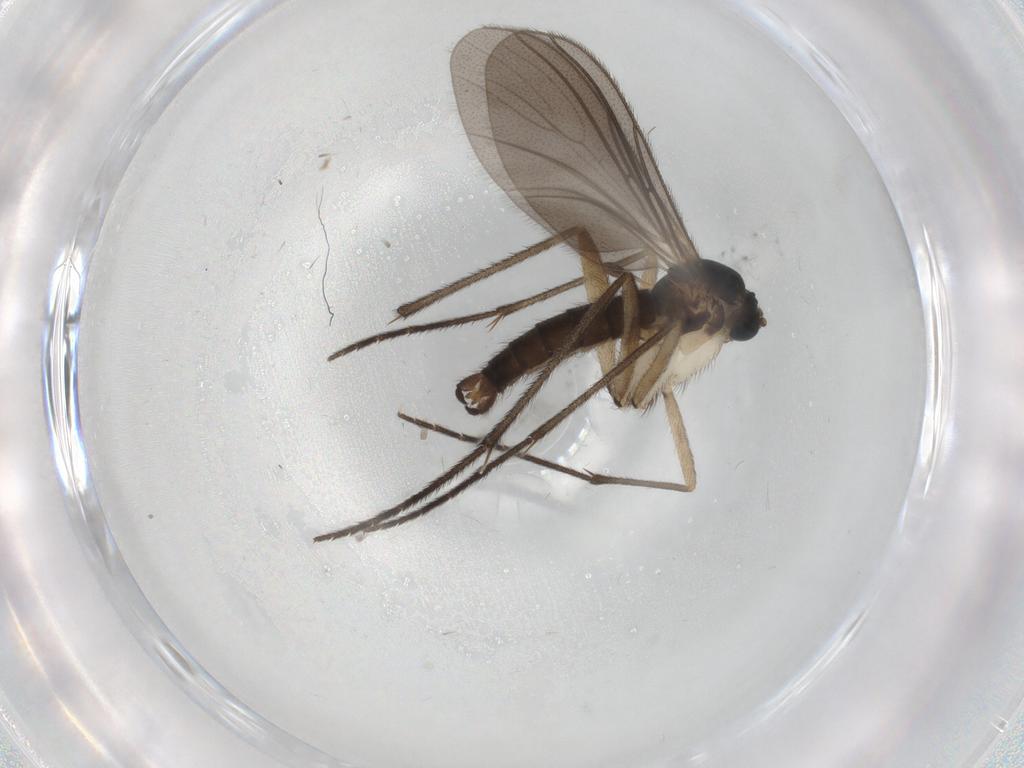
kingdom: Animalia
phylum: Arthropoda
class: Insecta
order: Diptera
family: Sciaridae
